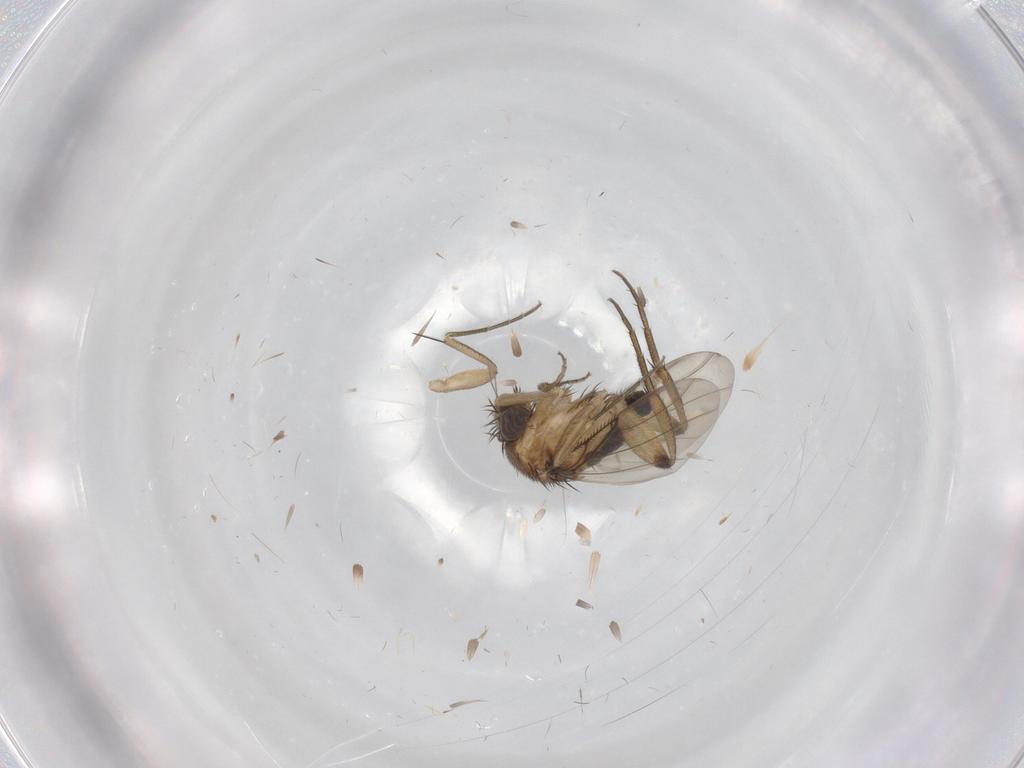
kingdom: Animalia
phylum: Arthropoda
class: Insecta
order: Diptera
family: Phoridae
